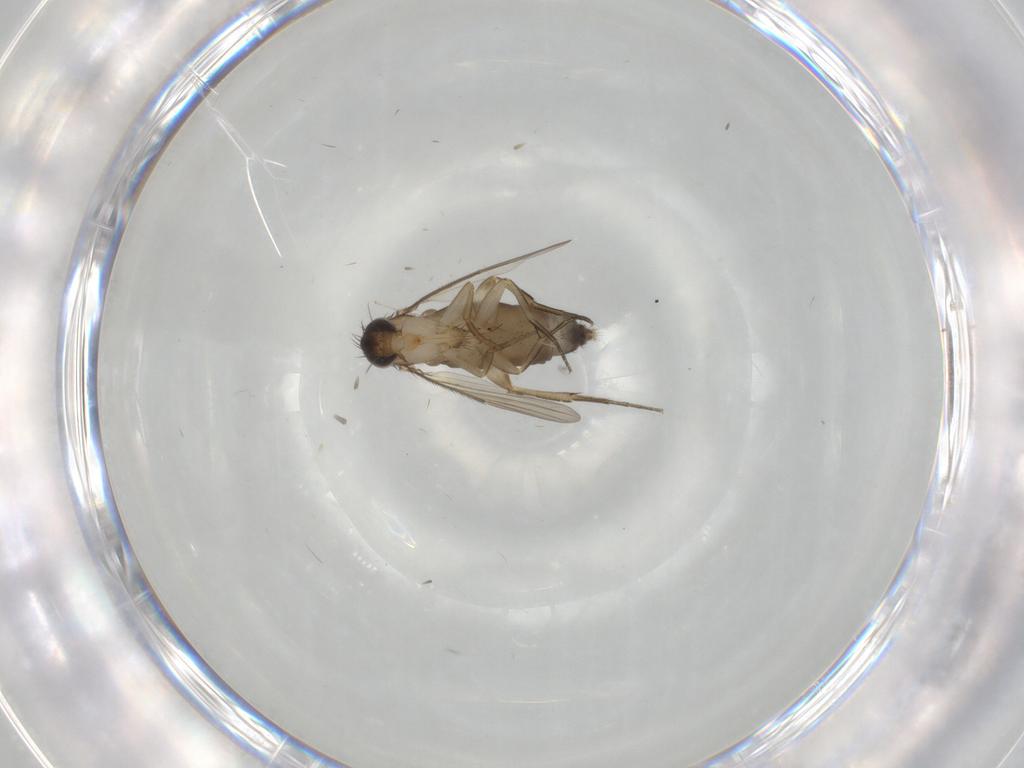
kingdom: Animalia
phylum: Arthropoda
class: Insecta
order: Diptera
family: Phoridae
